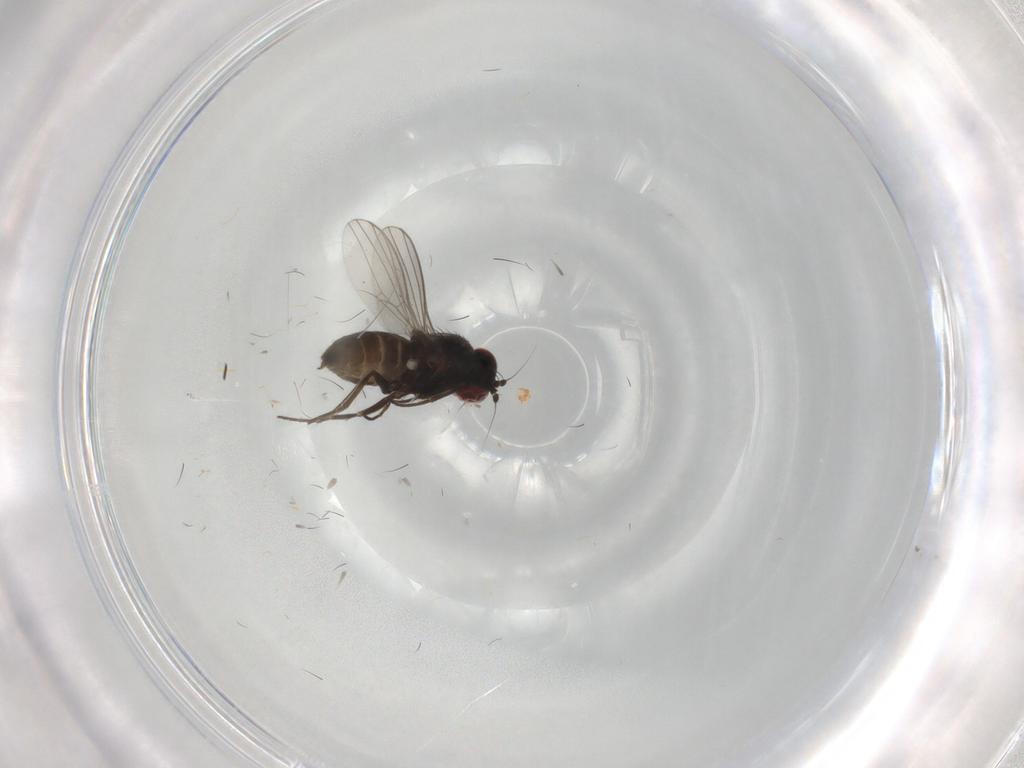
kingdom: Animalia
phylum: Arthropoda
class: Insecta
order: Diptera
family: Dolichopodidae
